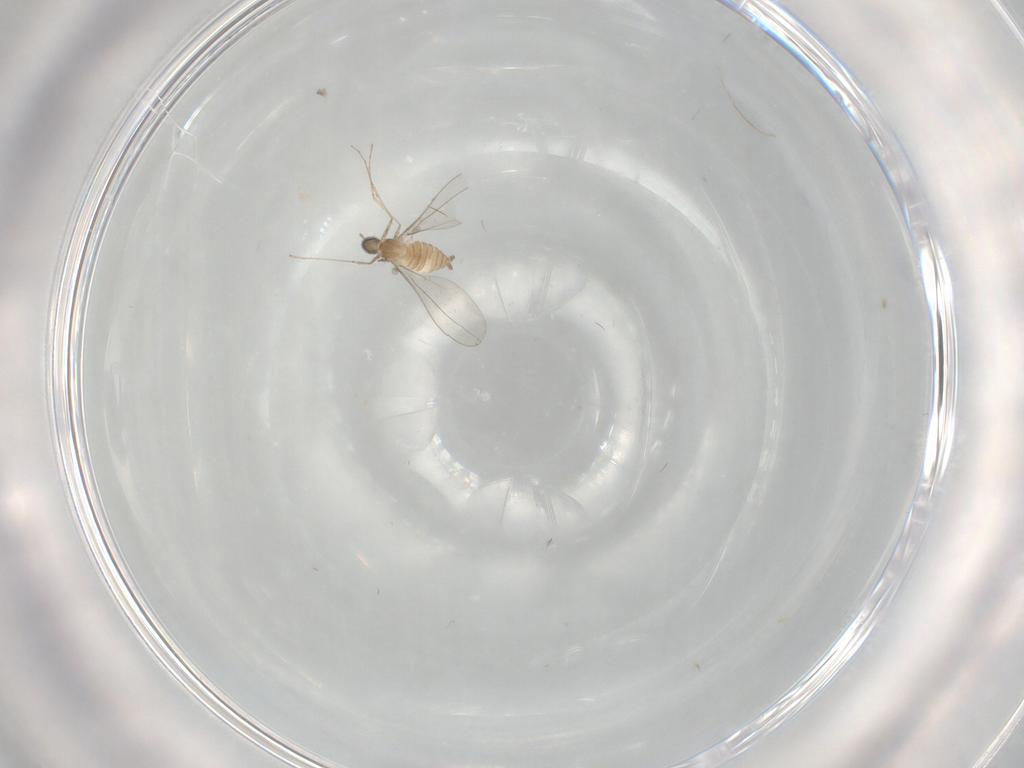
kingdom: Animalia
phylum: Arthropoda
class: Insecta
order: Diptera
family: Cecidomyiidae
